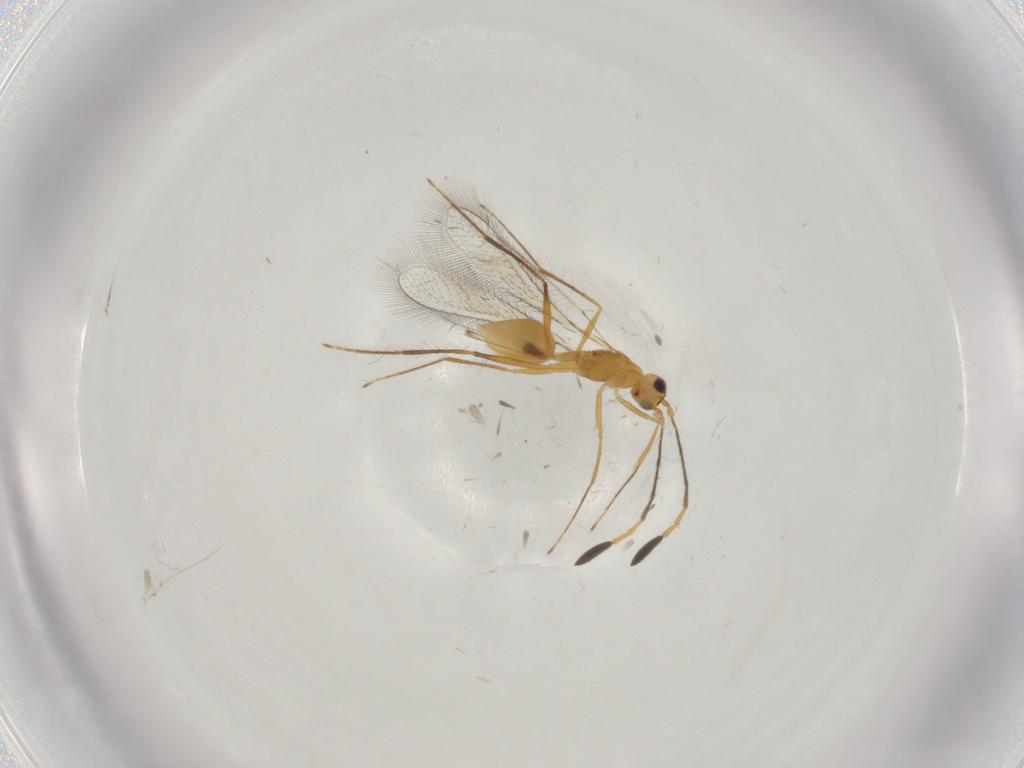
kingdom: Animalia
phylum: Arthropoda
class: Insecta
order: Hymenoptera
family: Mymaridae
